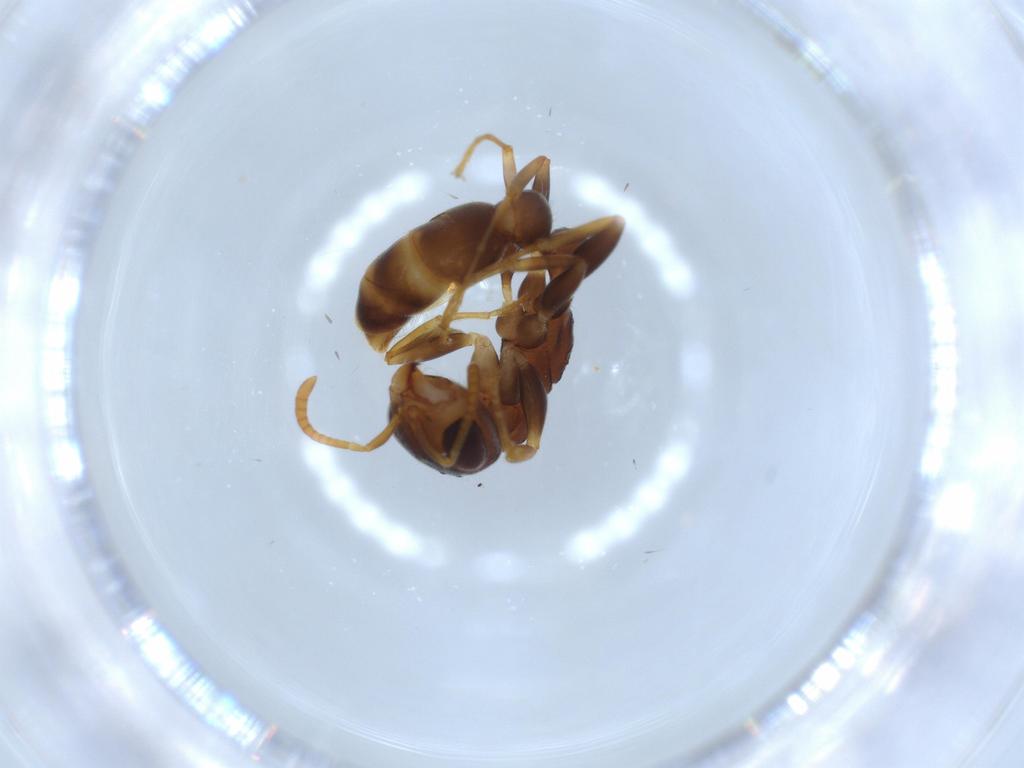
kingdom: Animalia
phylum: Arthropoda
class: Insecta
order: Hymenoptera
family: Formicidae
